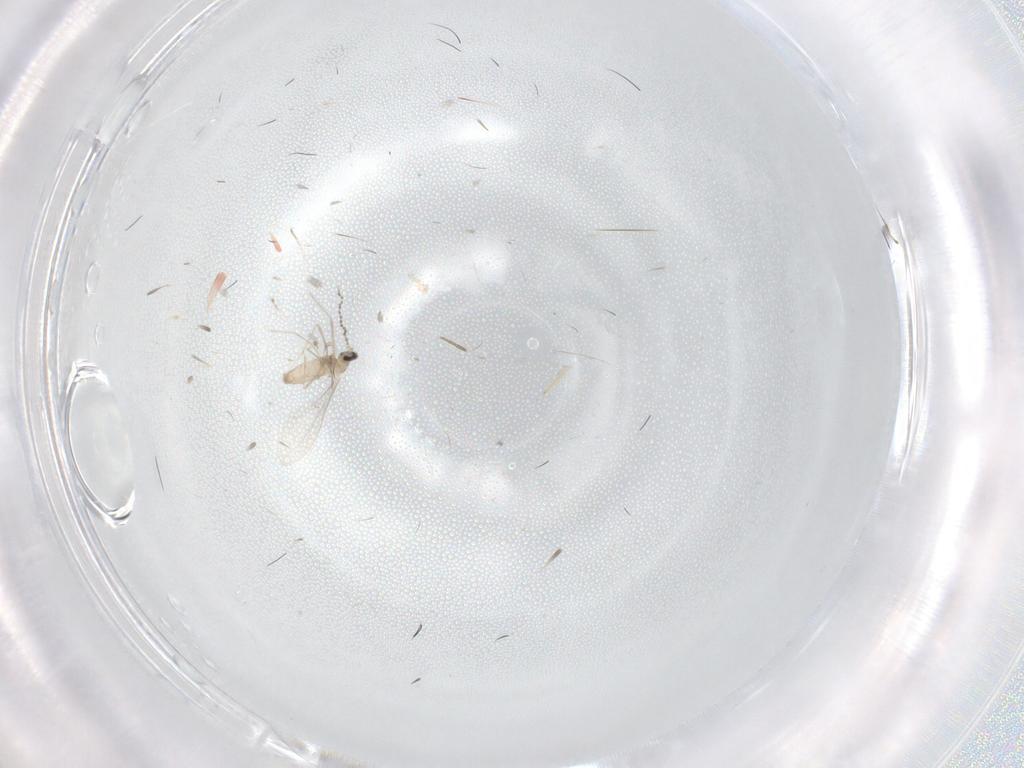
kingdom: Animalia
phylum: Arthropoda
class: Insecta
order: Diptera
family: Cecidomyiidae
